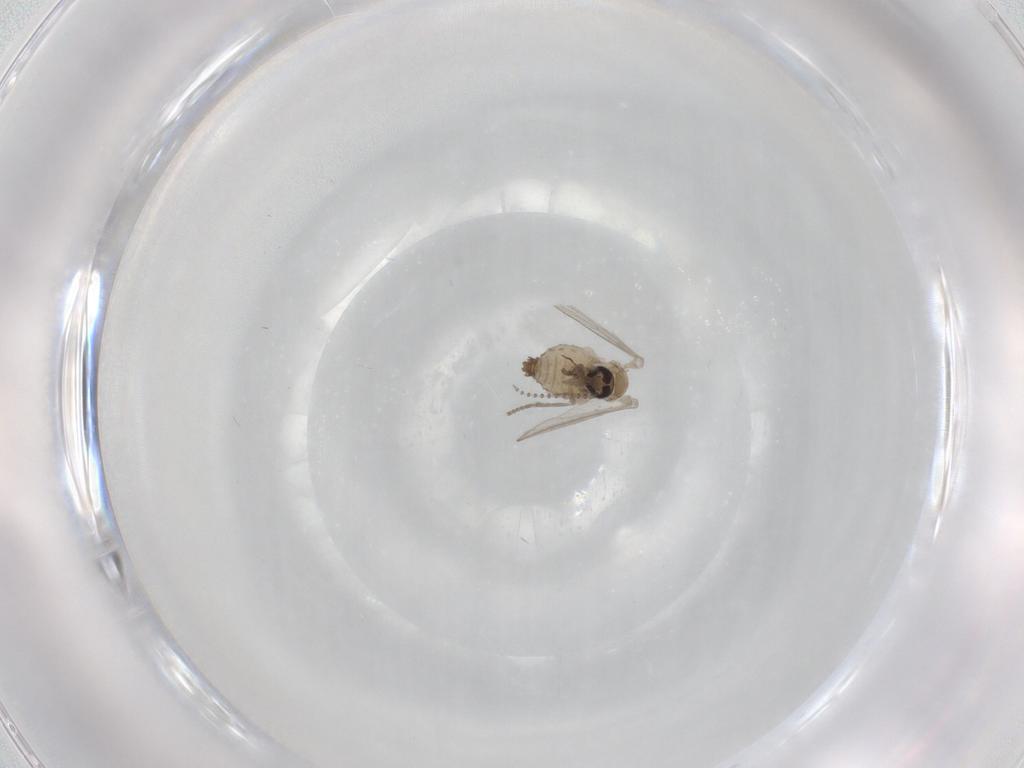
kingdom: Animalia
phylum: Arthropoda
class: Insecta
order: Diptera
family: Psychodidae
